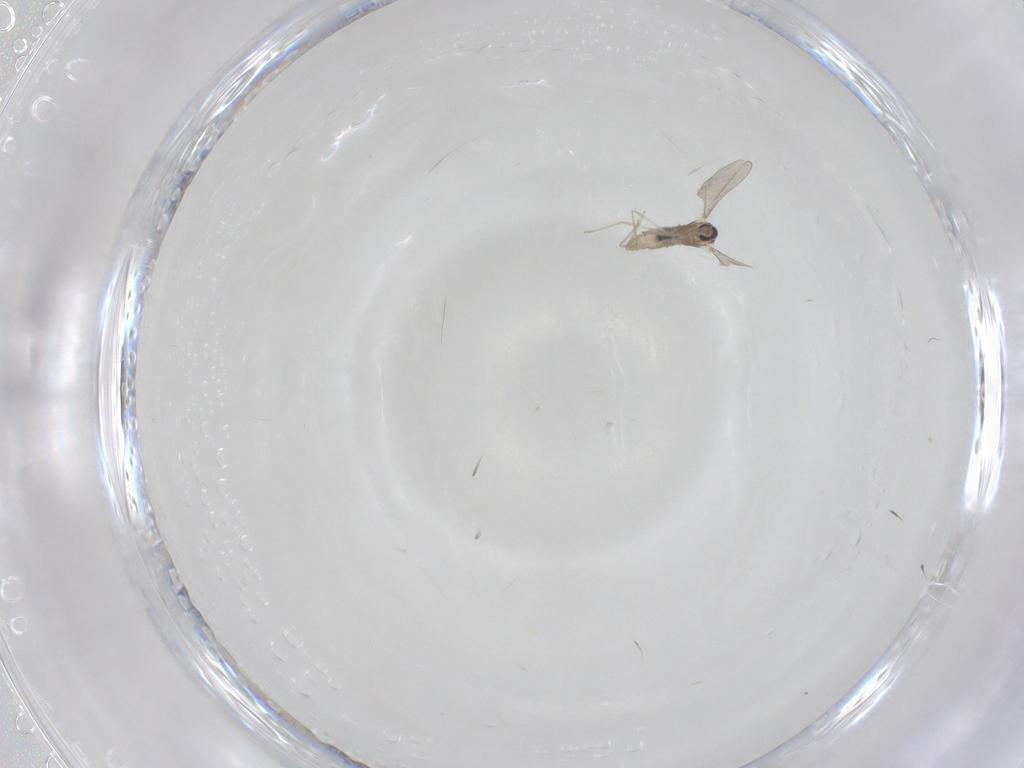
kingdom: Animalia
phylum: Arthropoda
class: Insecta
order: Diptera
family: Cecidomyiidae
